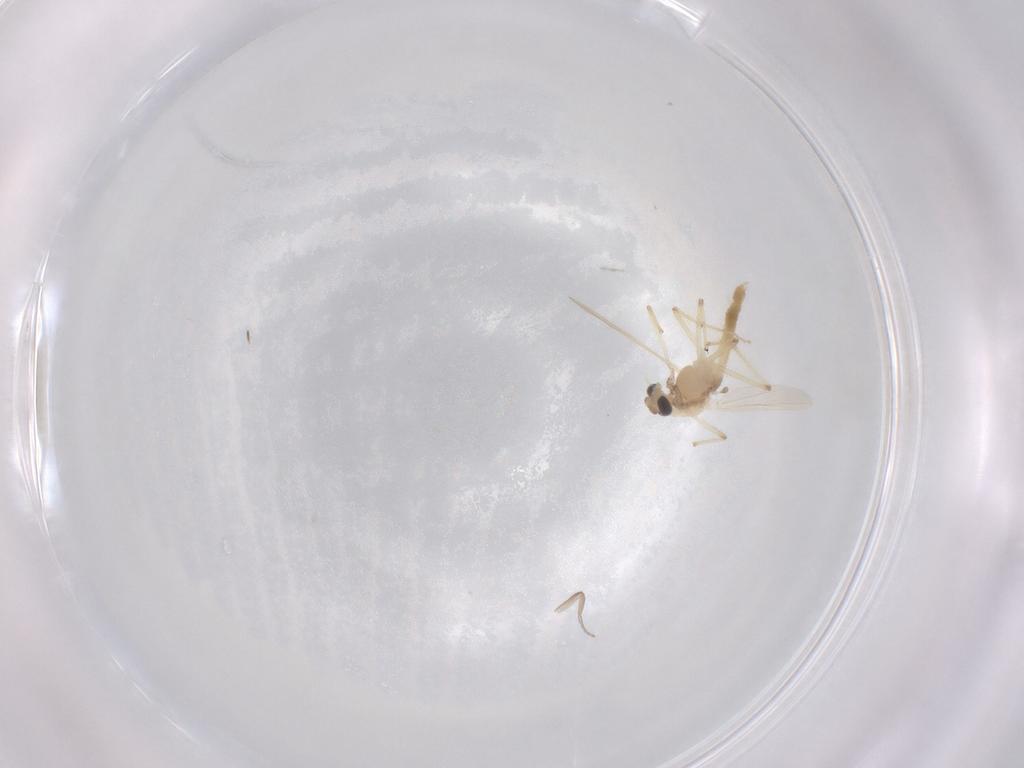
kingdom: Animalia
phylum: Arthropoda
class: Insecta
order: Diptera
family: Chironomidae
